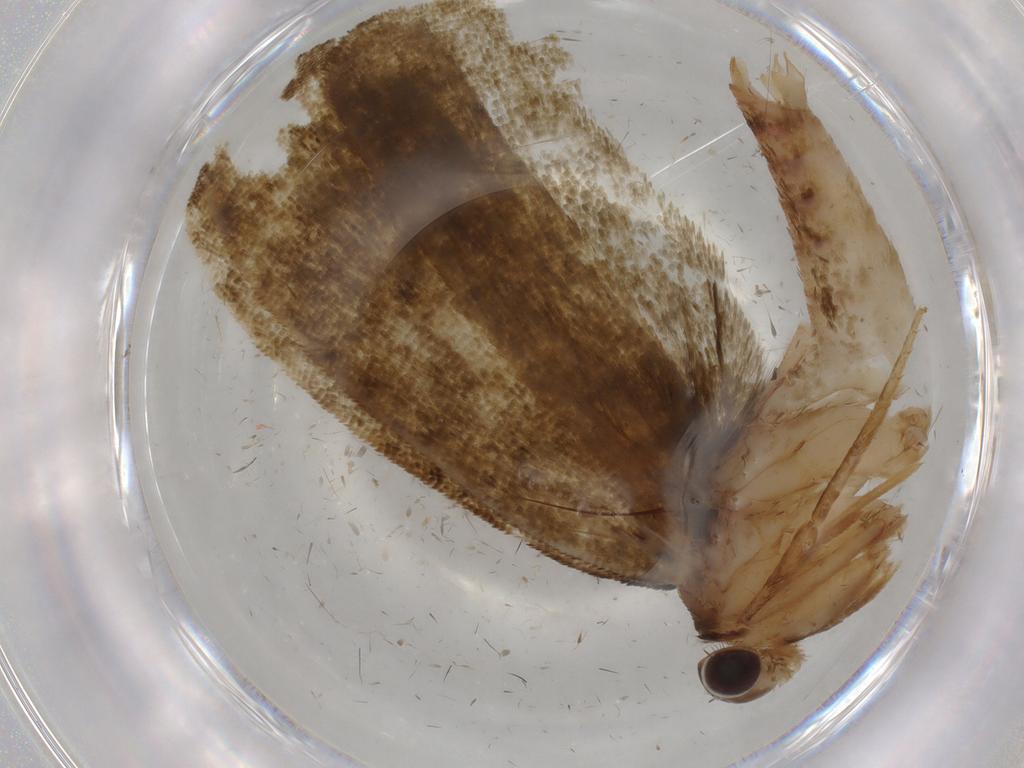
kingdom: Animalia
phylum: Arthropoda
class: Insecta
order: Lepidoptera
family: Geometridae
